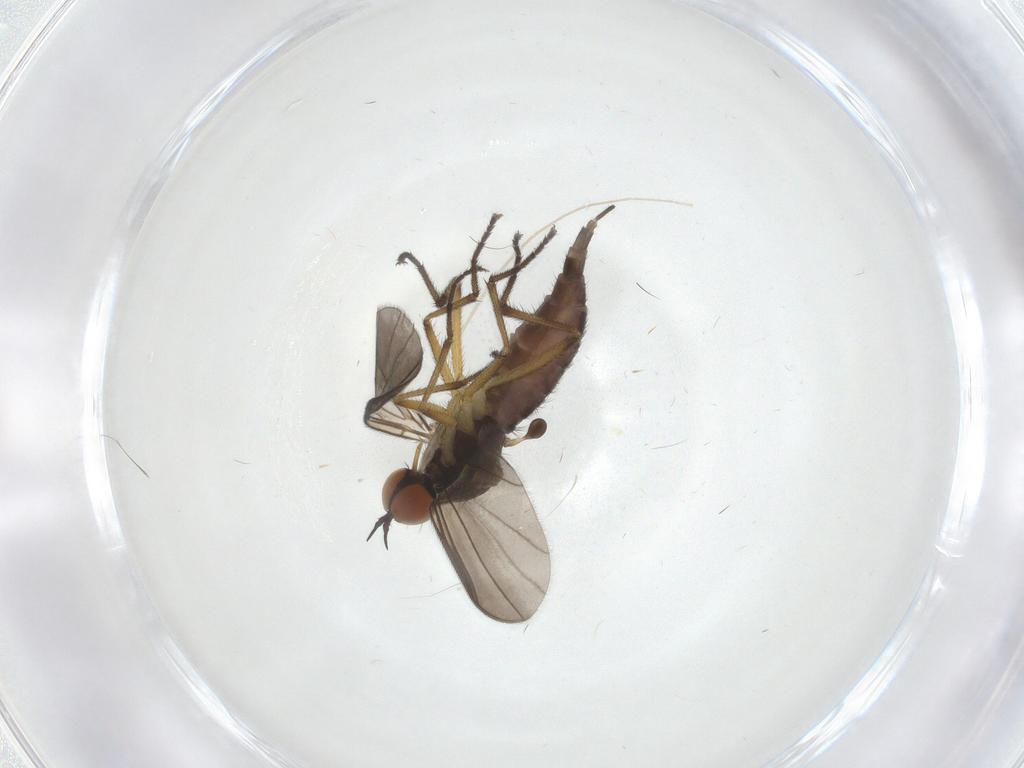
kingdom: Animalia
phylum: Arthropoda
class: Insecta
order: Diptera
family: Empididae
